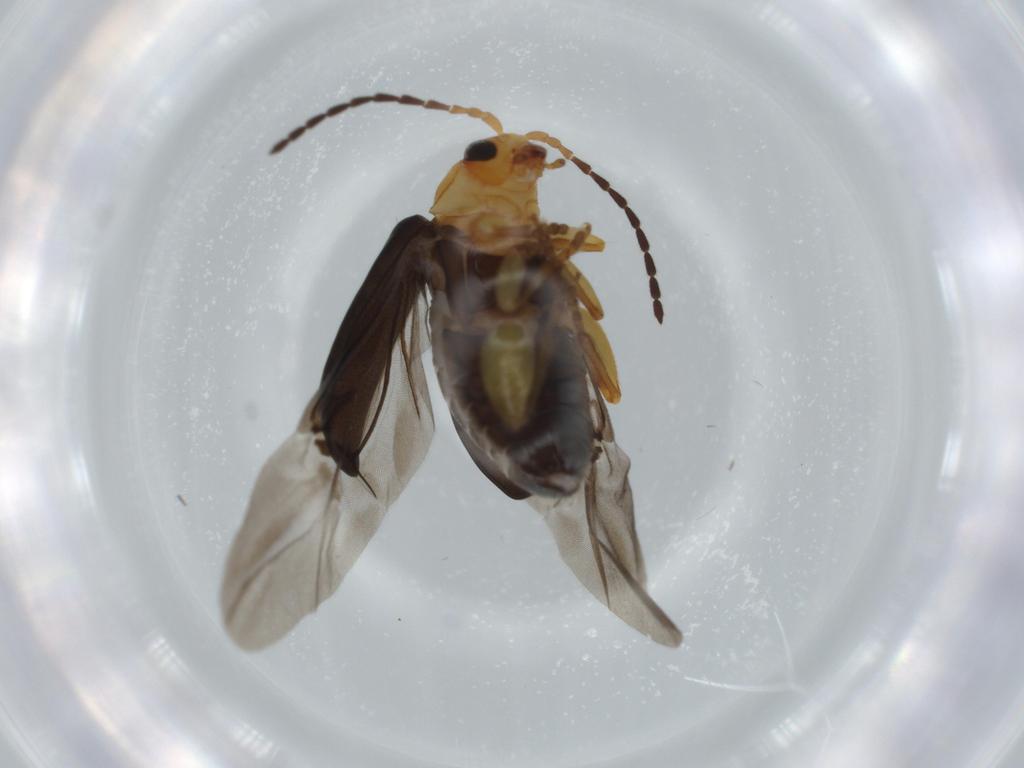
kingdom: Animalia
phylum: Arthropoda
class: Insecta
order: Coleoptera
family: Chrysomelidae
